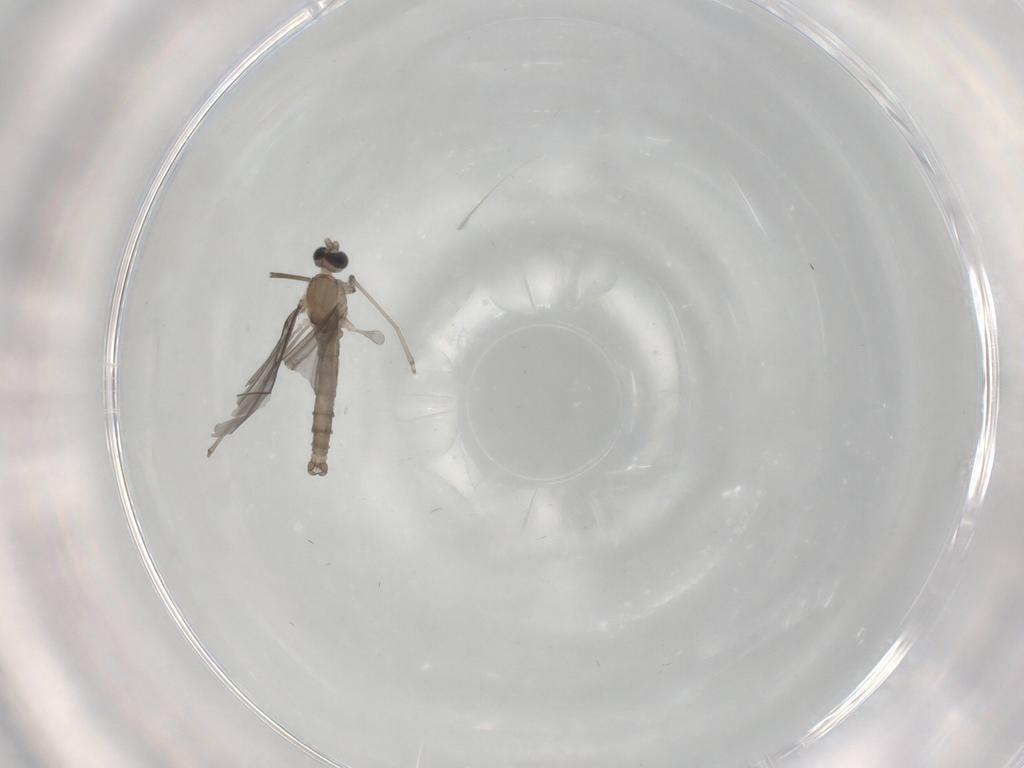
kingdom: Animalia
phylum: Arthropoda
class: Insecta
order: Diptera
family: Cecidomyiidae
